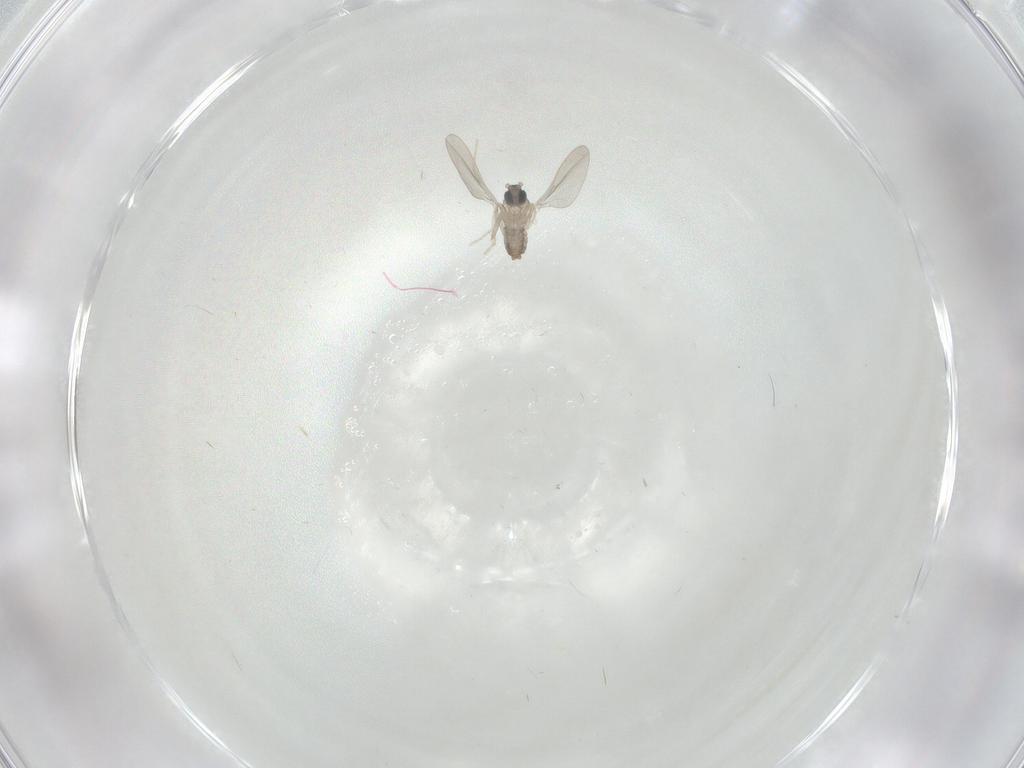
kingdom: Animalia
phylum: Arthropoda
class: Insecta
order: Diptera
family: Cecidomyiidae
